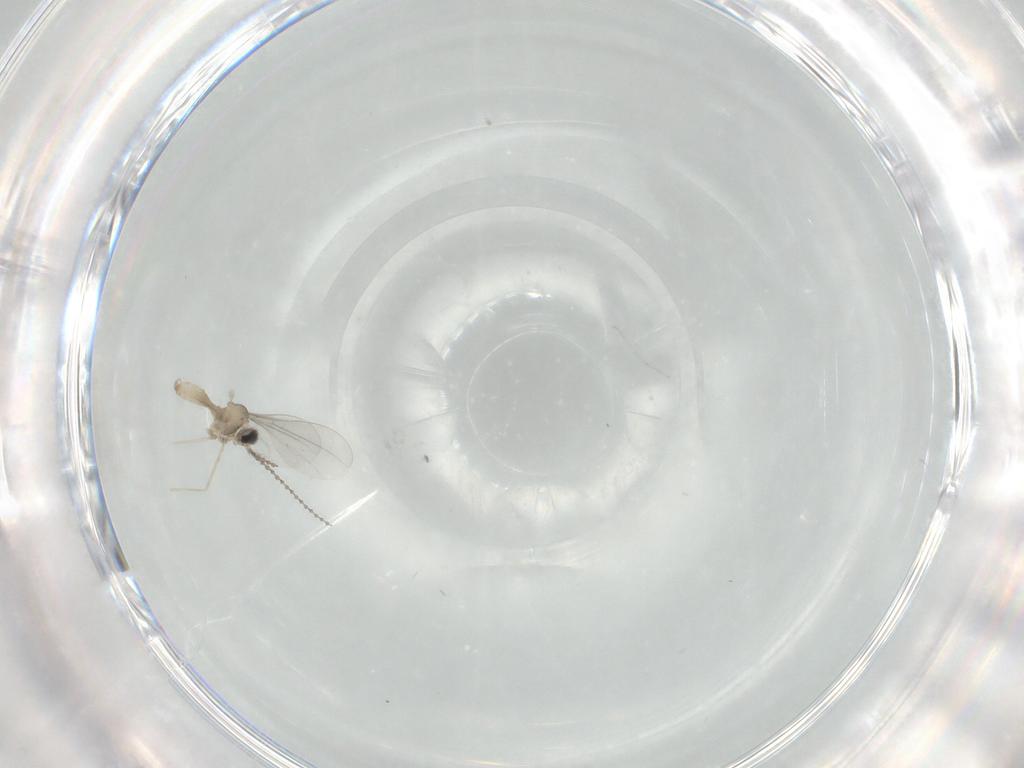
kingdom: Animalia
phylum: Arthropoda
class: Insecta
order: Diptera
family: Cecidomyiidae
